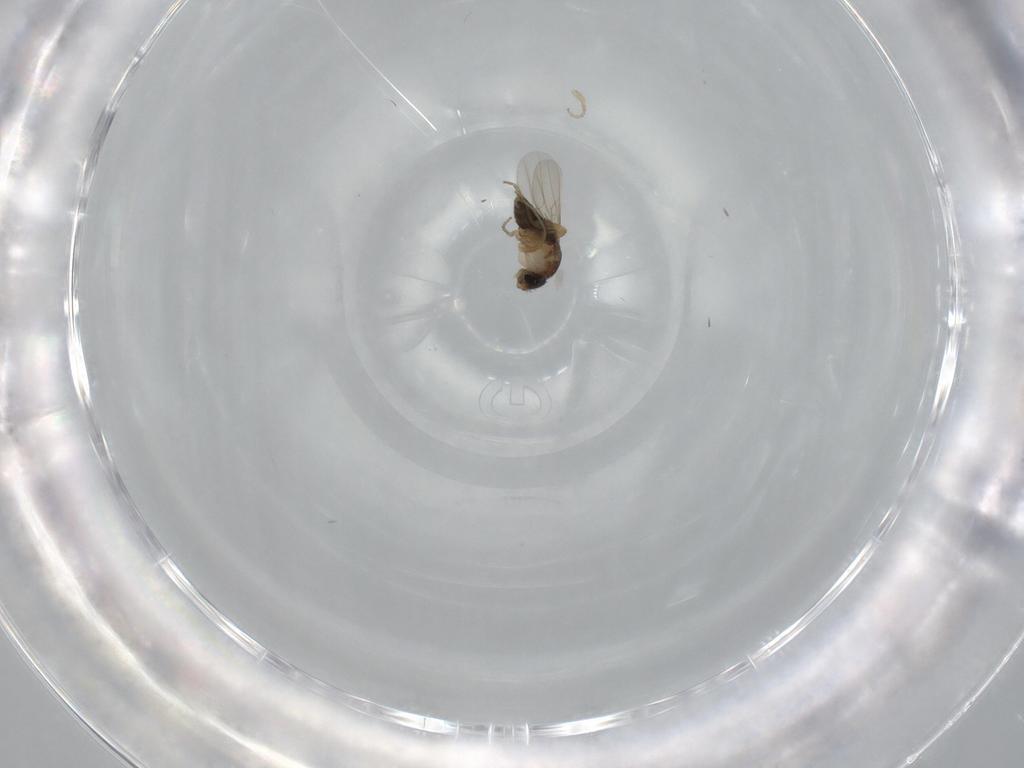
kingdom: Animalia
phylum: Arthropoda
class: Insecta
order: Diptera
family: Phoridae
